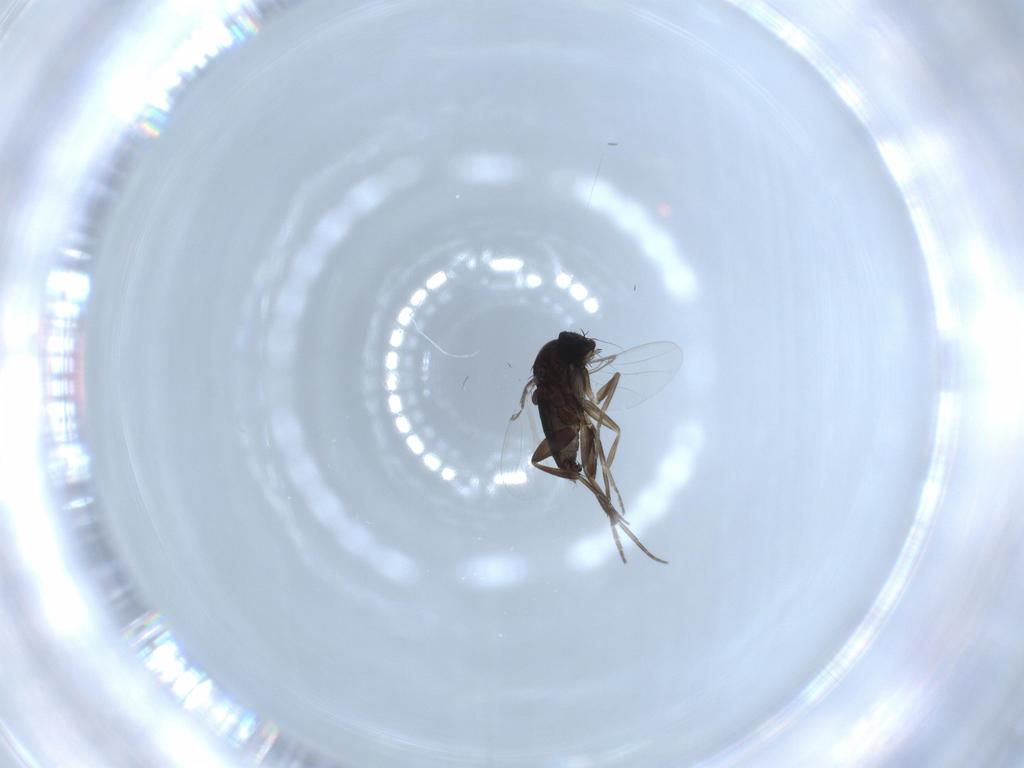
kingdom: Animalia
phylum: Arthropoda
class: Insecta
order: Diptera
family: Phoridae
